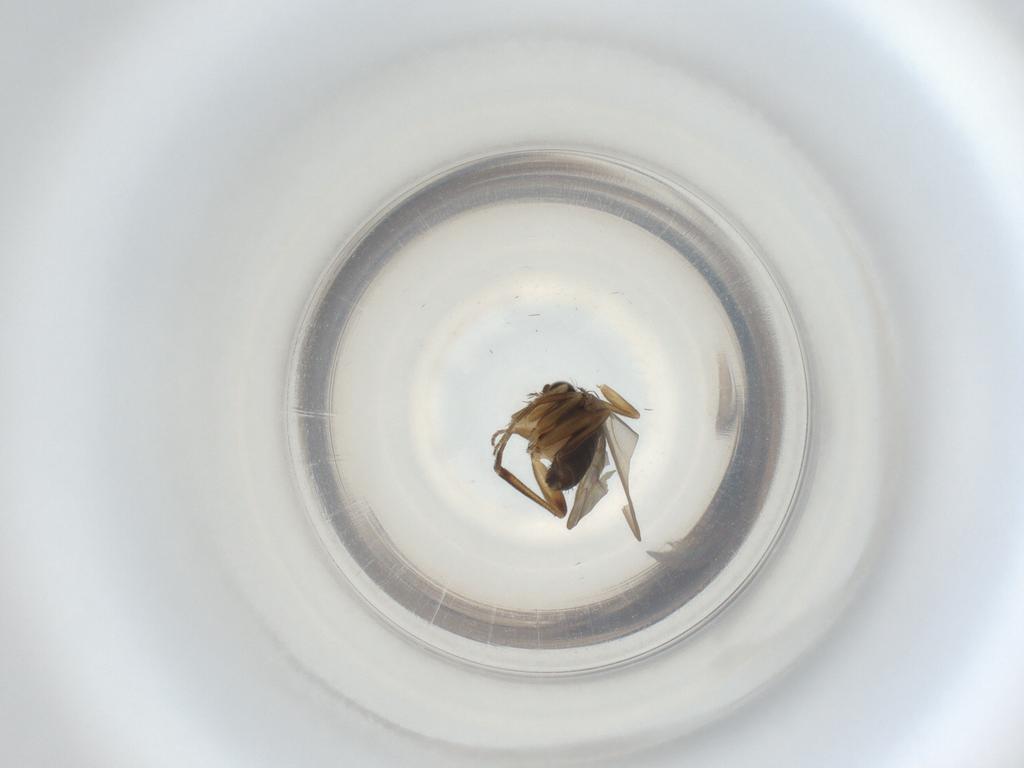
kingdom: Animalia
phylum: Arthropoda
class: Insecta
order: Diptera
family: Phoridae
